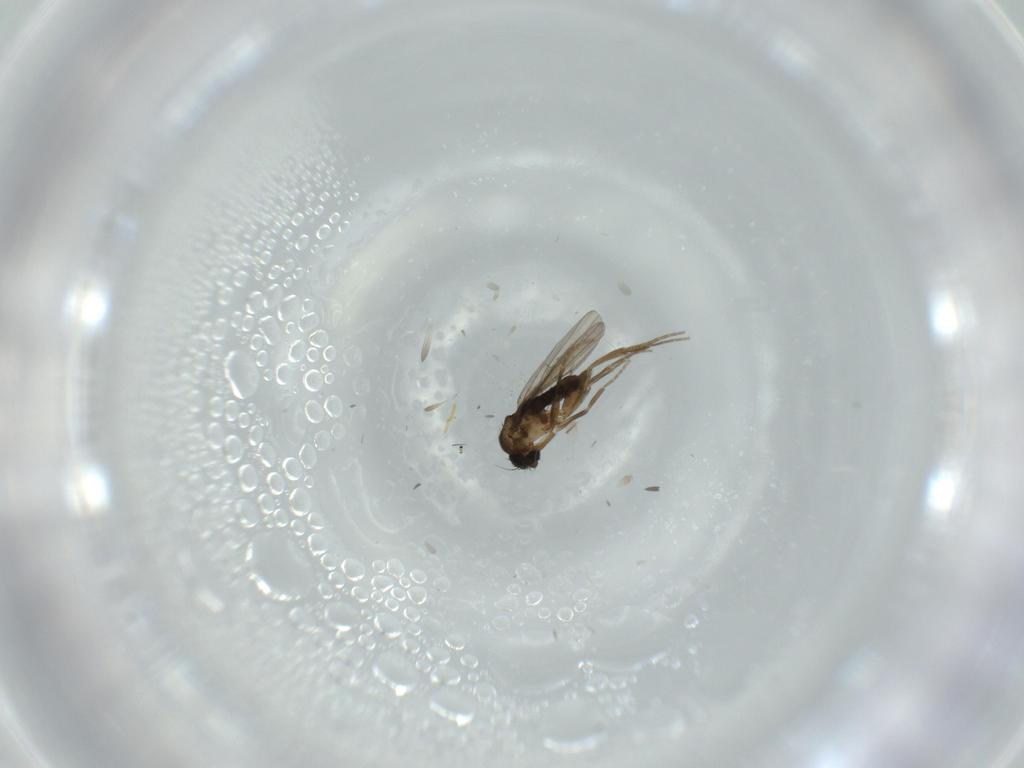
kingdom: Animalia
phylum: Arthropoda
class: Insecta
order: Diptera
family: Phoridae
